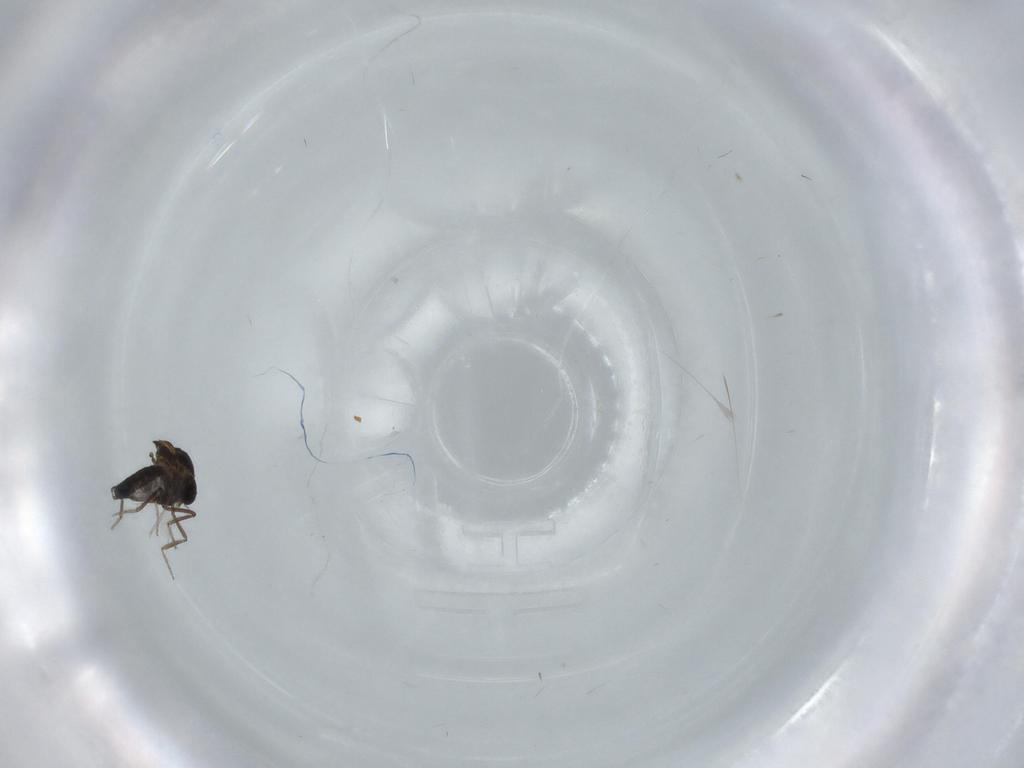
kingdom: Animalia
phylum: Arthropoda
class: Insecta
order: Diptera
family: Ceratopogonidae
